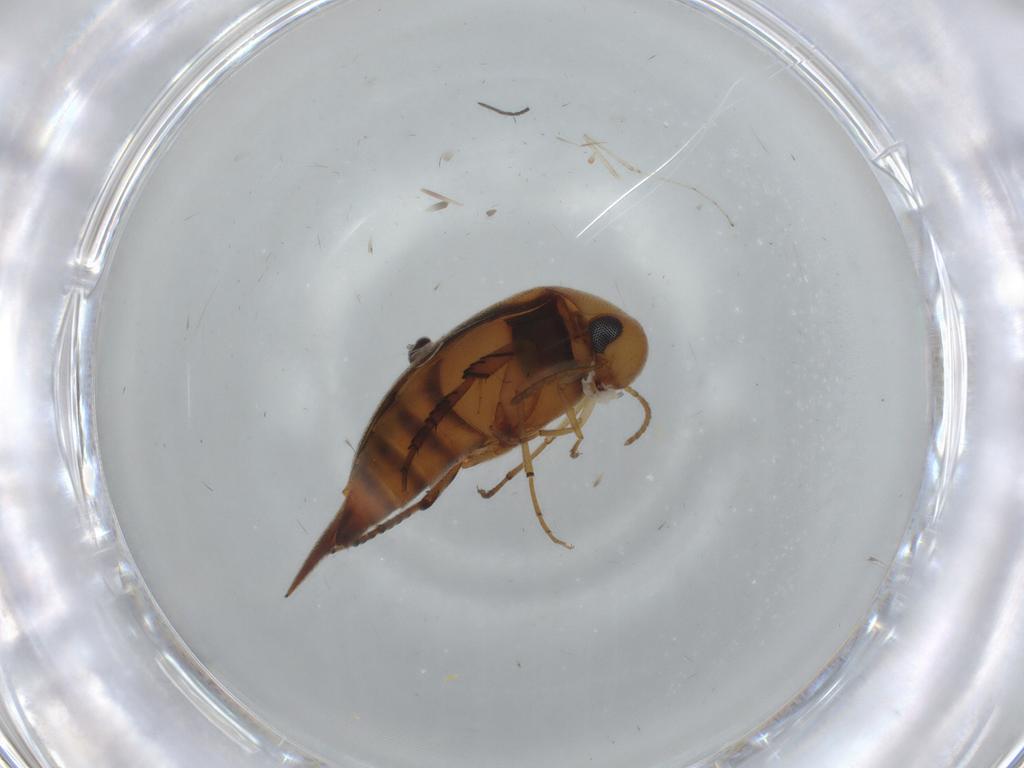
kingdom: Animalia
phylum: Arthropoda
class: Insecta
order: Coleoptera
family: Mordellidae
